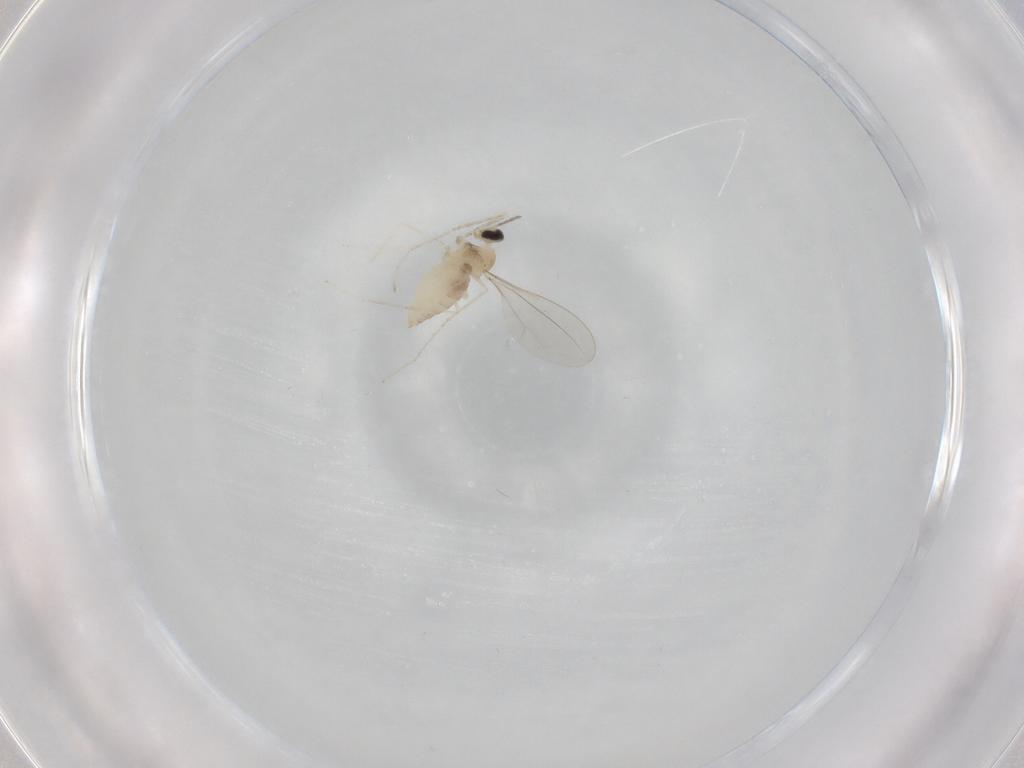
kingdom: Animalia
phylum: Arthropoda
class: Insecta
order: Diptera
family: Cecidomyiidae
